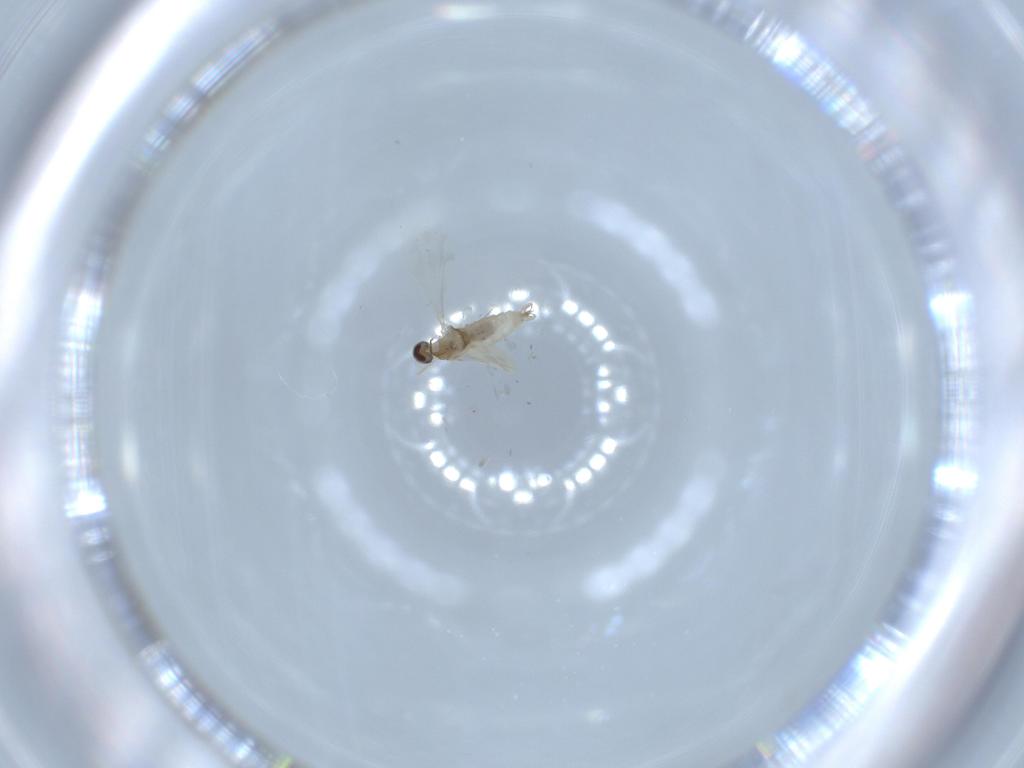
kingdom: Animalia
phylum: Arthropoda
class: Insecta
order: Diptera
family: Cecidomyiidae
